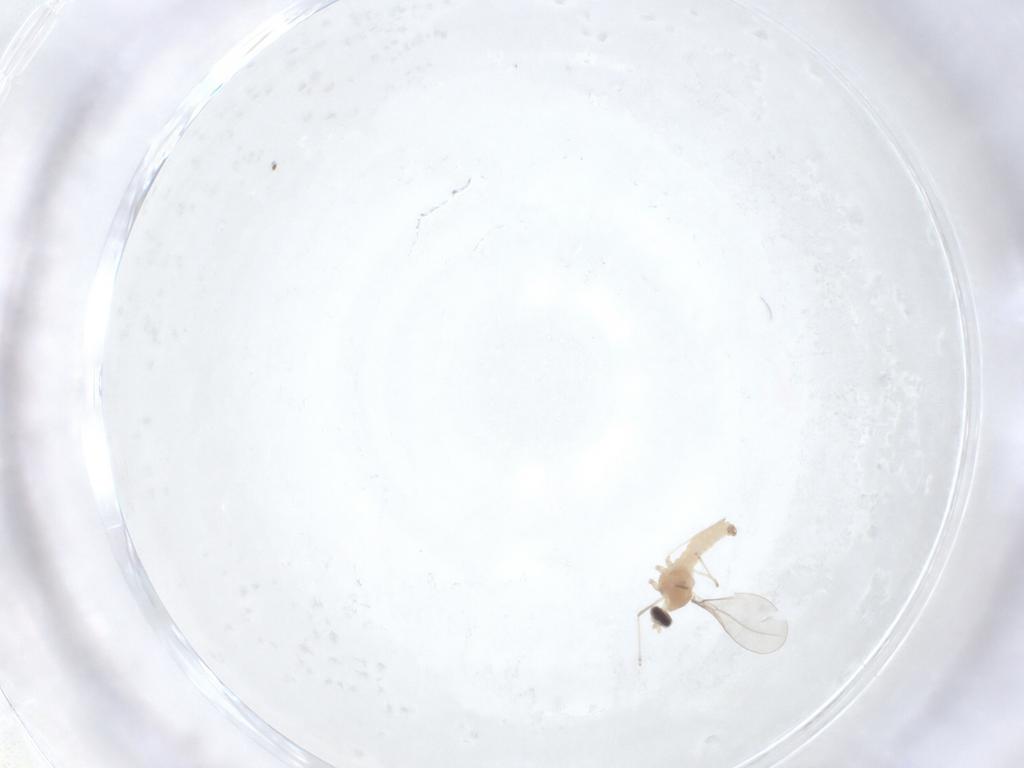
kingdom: Animalia
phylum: Arthropoda
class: Insecta
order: Diptera
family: Cecidomyiidae
